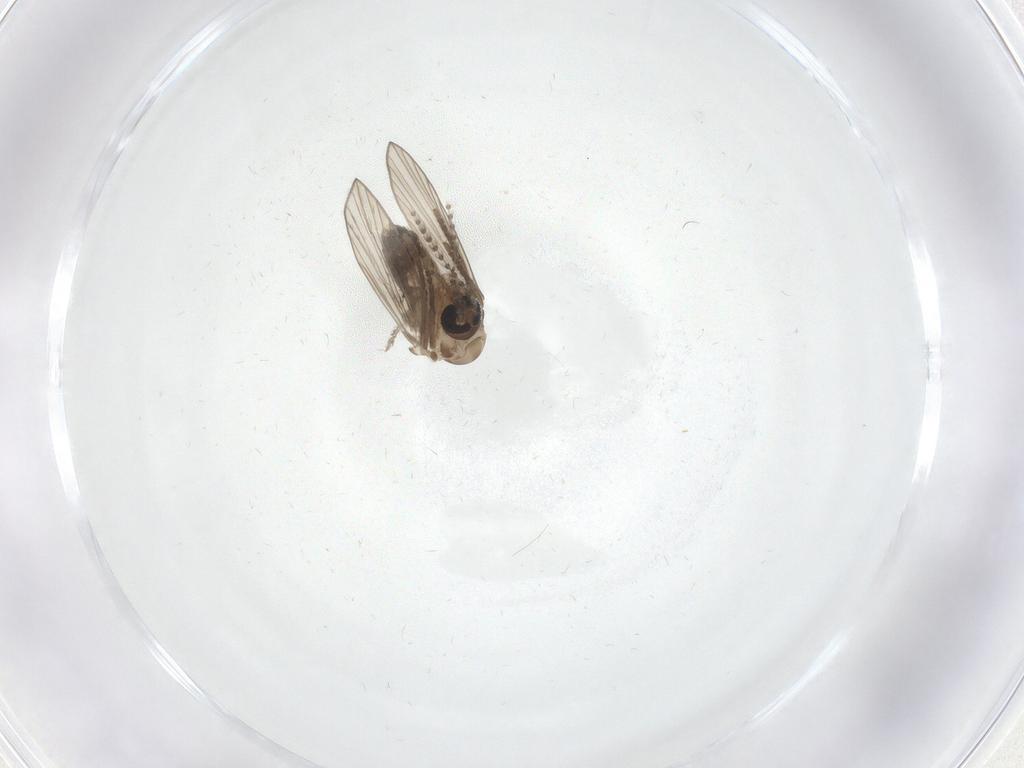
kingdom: Animalia
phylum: Arthropoda
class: Insecta
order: Diptera
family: Psychodidae
